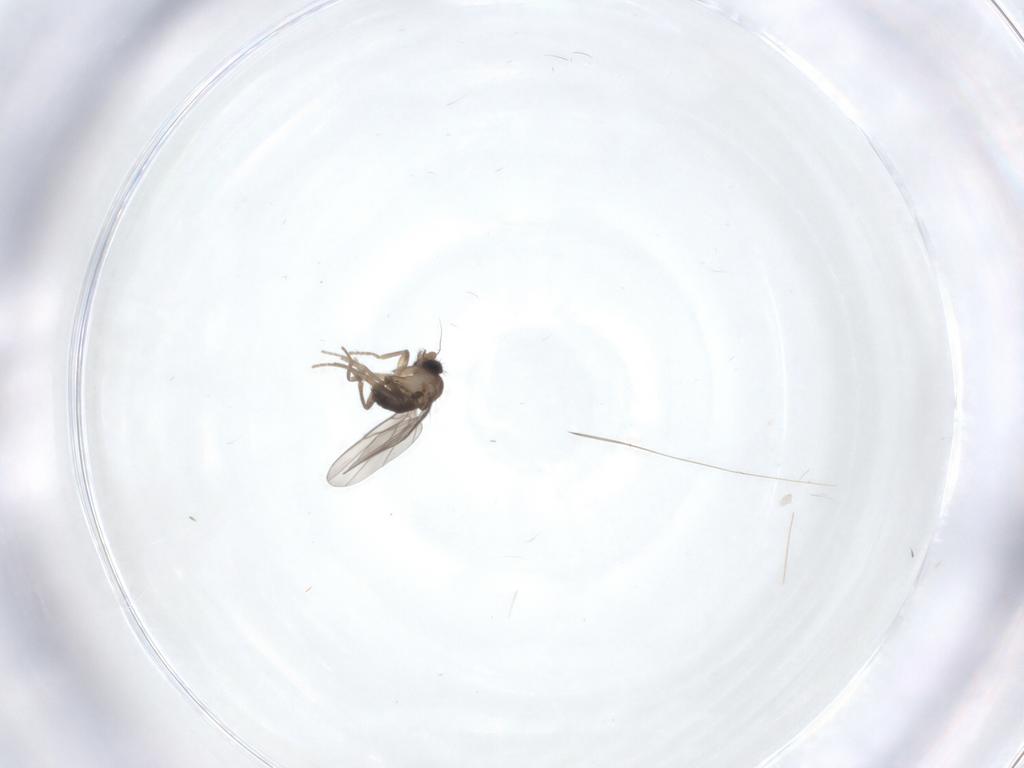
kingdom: Animalia
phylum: Arthropoda
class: Insecta
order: Diptera
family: Phoridae
